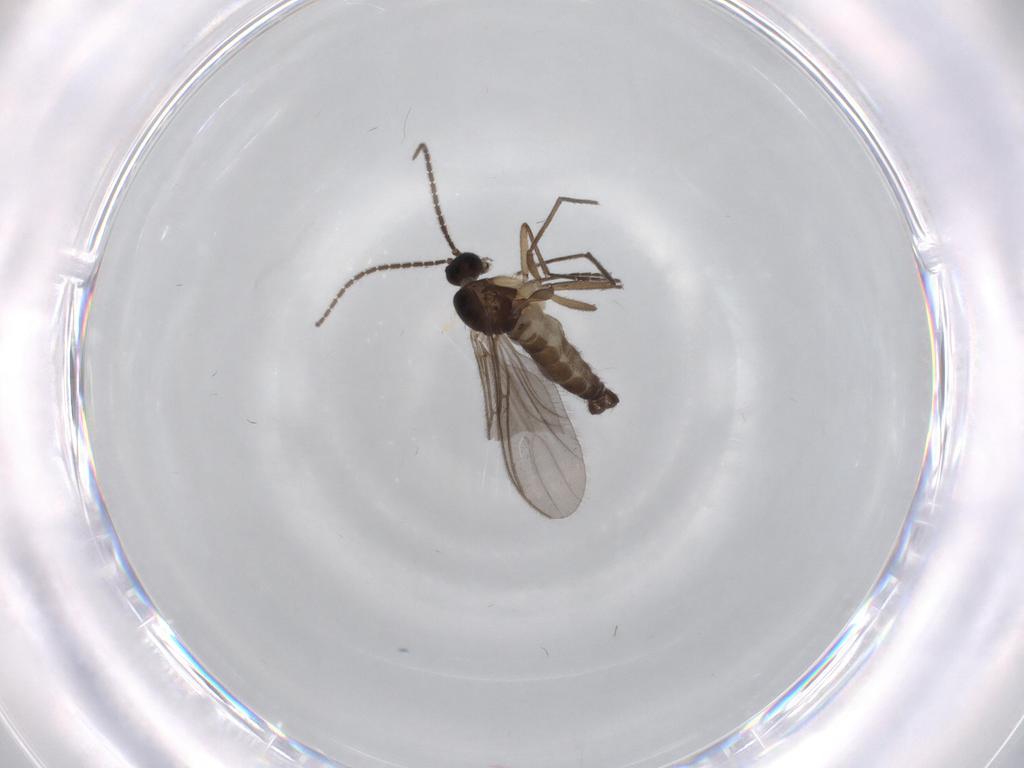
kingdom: Animalia
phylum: Arthropoda
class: Insecta
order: Diptera
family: Sciaridae
